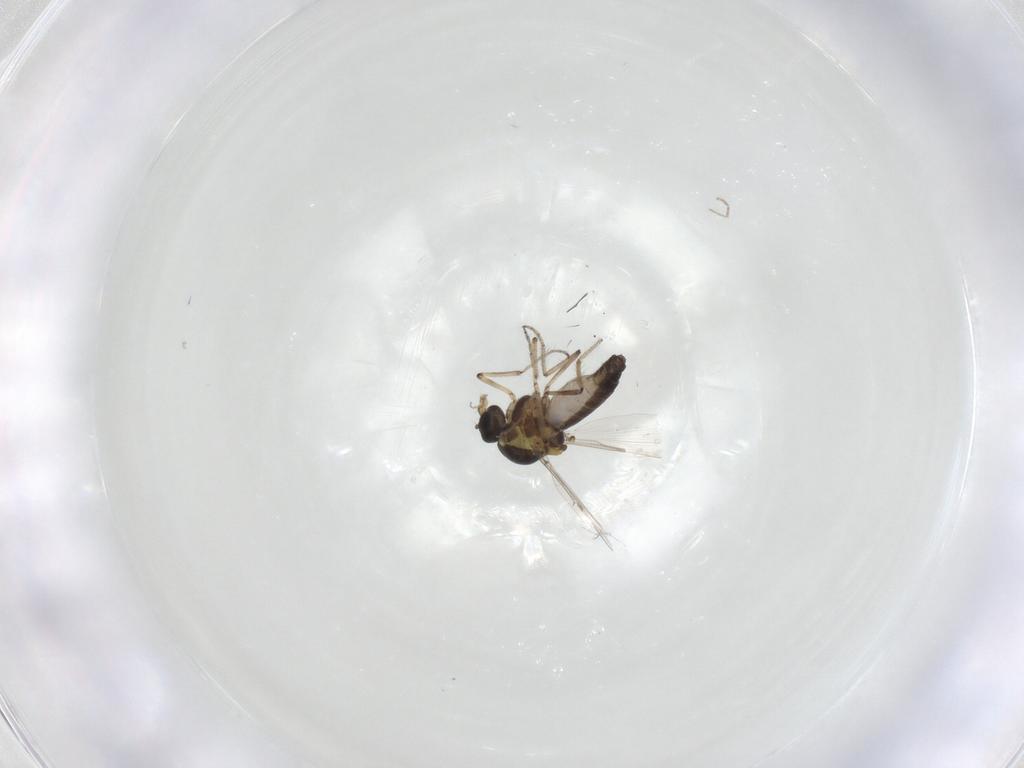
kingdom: Animalia
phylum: Arthropoda
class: Insecta
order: Diptera
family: Ceratopogonidae
